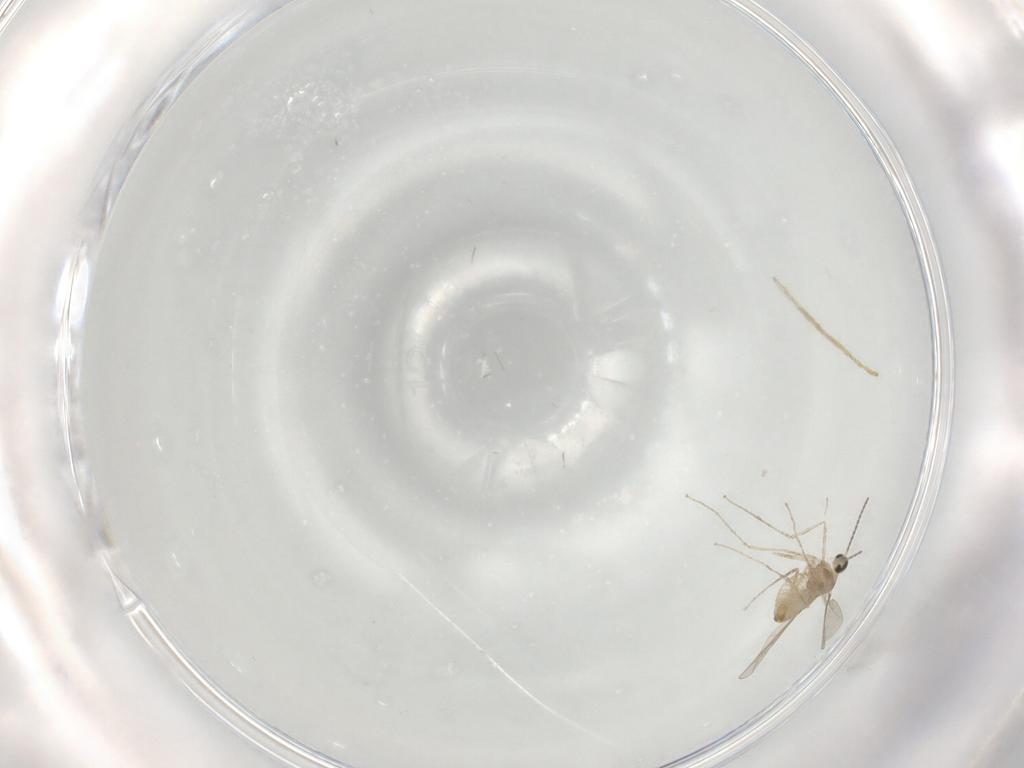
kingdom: Animalia
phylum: Arthropoda
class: Insecta
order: Diptera
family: Cecidomyiidae
